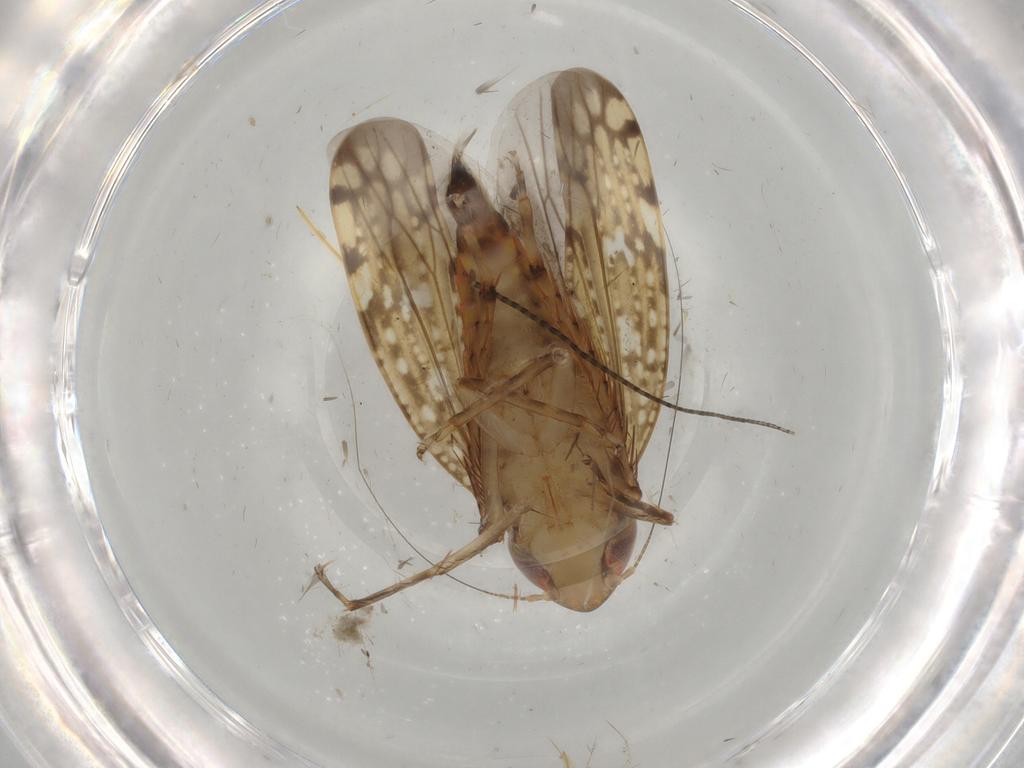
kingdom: Animalia
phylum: Arthropoda
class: Insecta
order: Hemiptera
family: Cicadellidae
